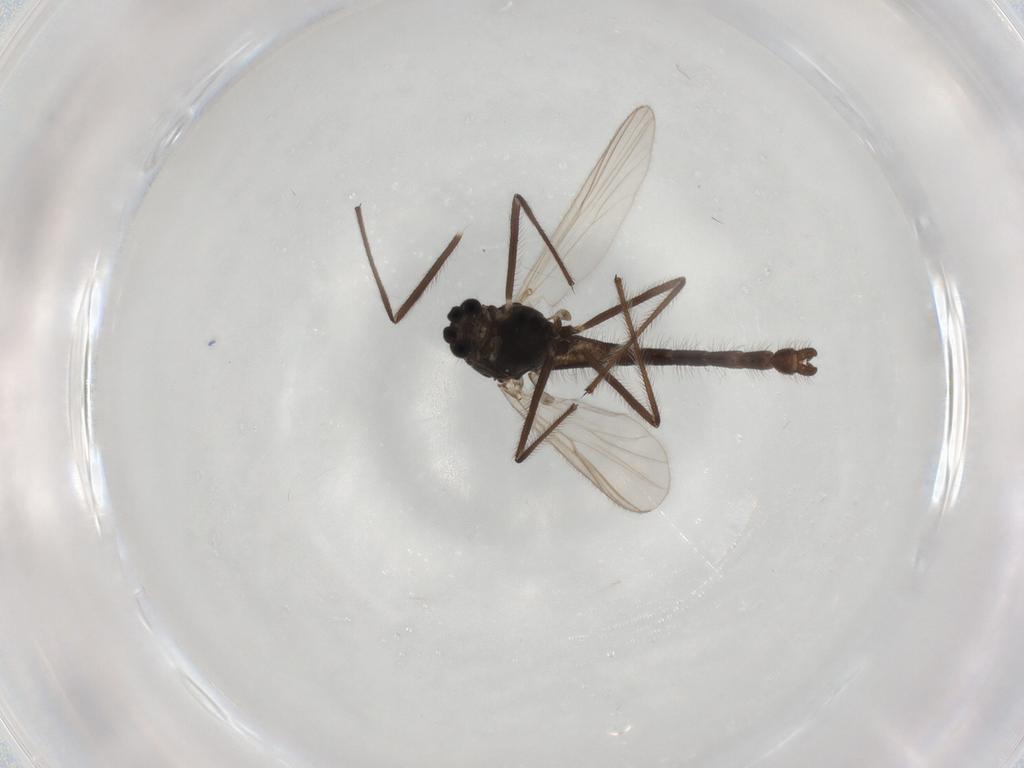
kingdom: Animalia
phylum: Arthropoda
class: Insecta
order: Diptera
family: Chironomidae
